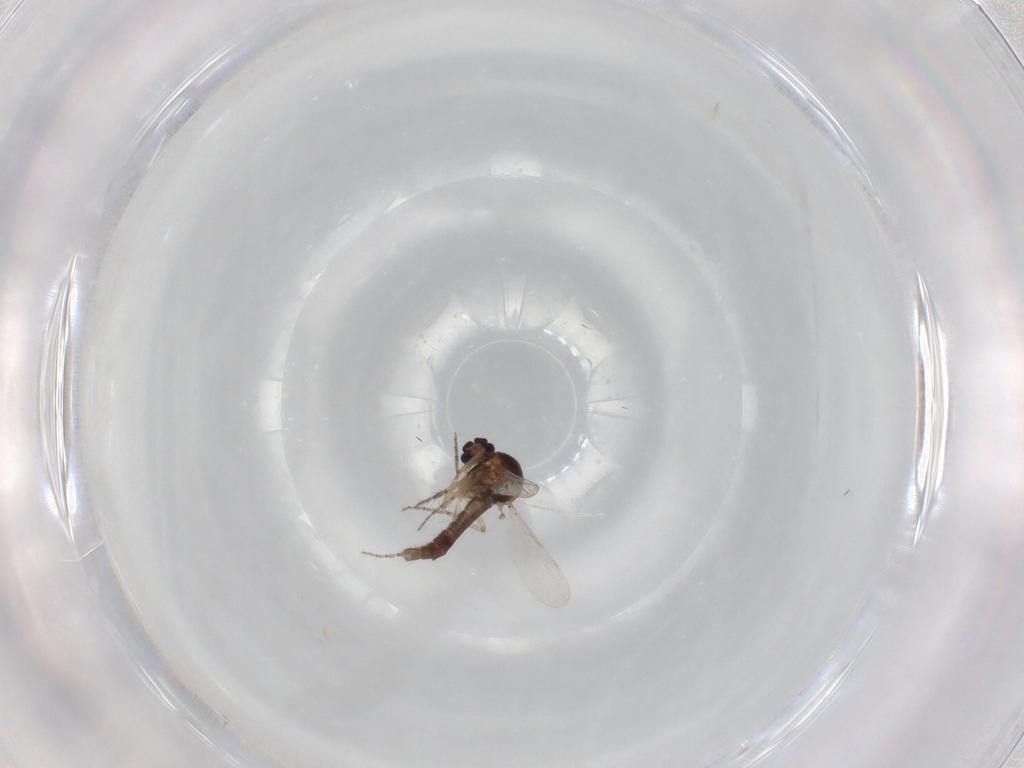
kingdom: Animalia
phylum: Arthropoda
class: Insecta
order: Diptera
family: Ceratopogonidae
